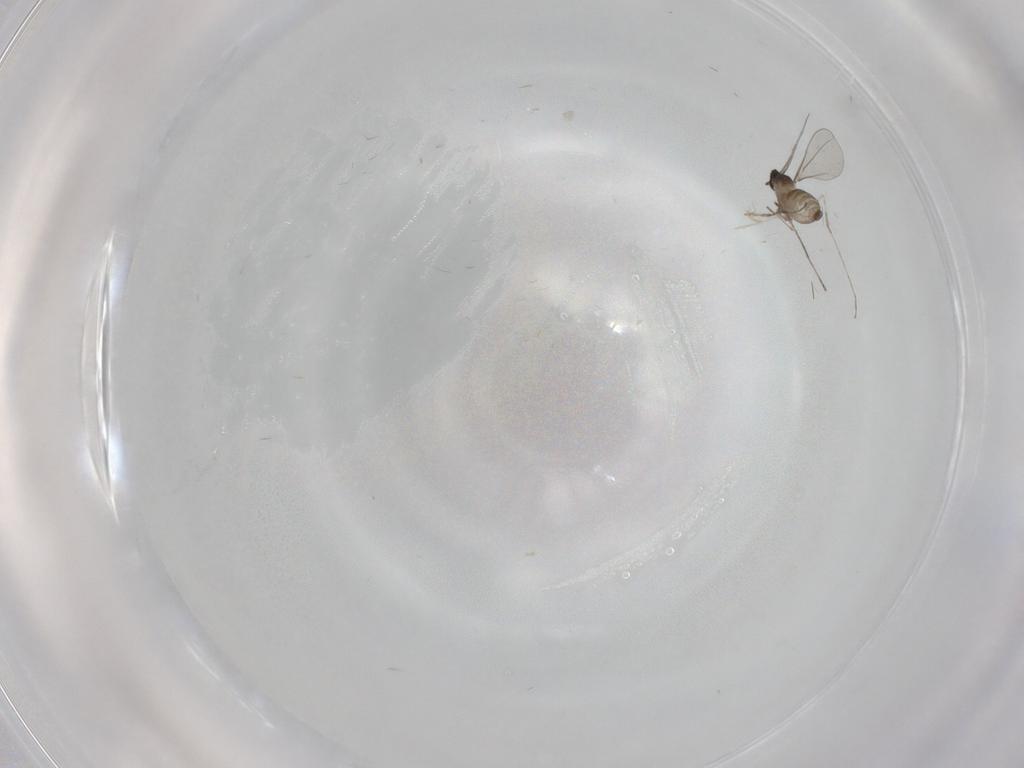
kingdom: Animalia
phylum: Arthropoda
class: Insecta
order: Diptera
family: Cecidomyiidae
